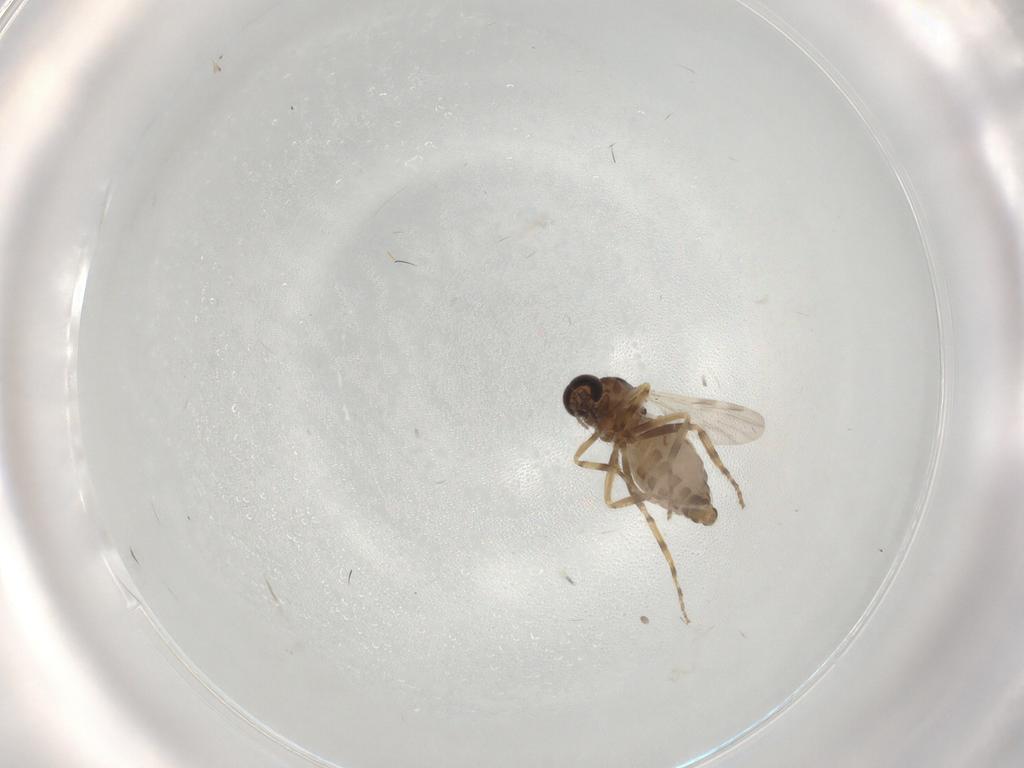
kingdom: Animalia
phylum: Arthropoda
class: Insecta
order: Diptera
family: Ceratopogonidae
